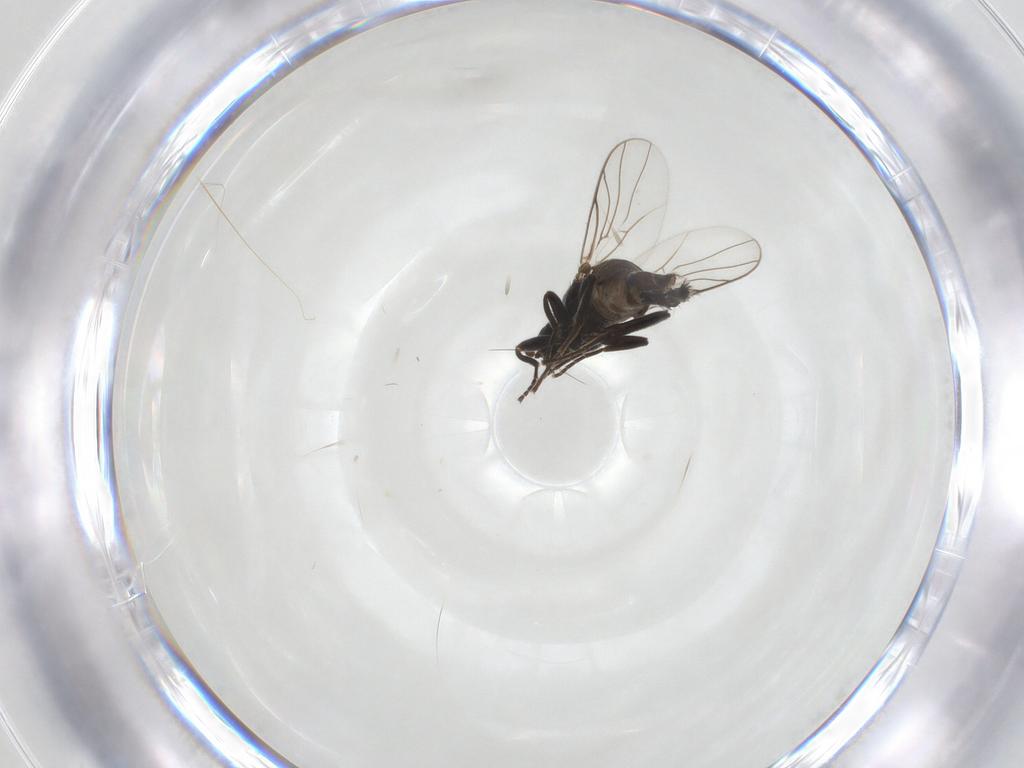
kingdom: Animalia
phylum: Arthropoda
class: Insecta
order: Diptera
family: Hybotidae
